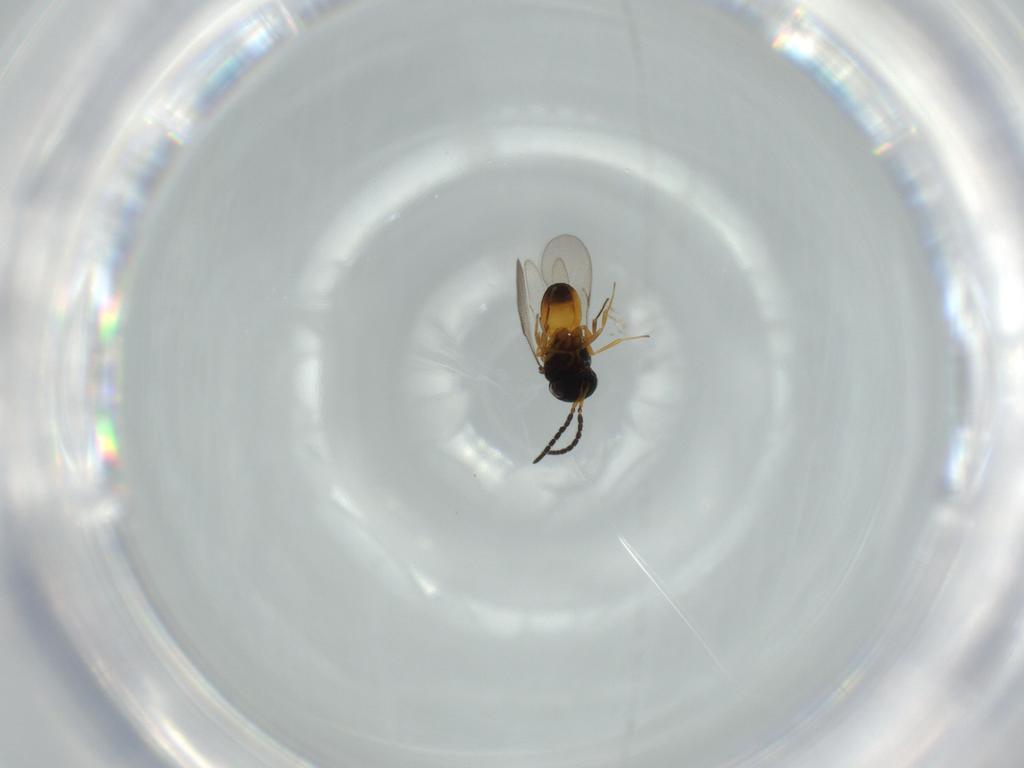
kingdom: Animalia
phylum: Arthropoda
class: Insecta
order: Hymenoptera
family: Scelionidae
